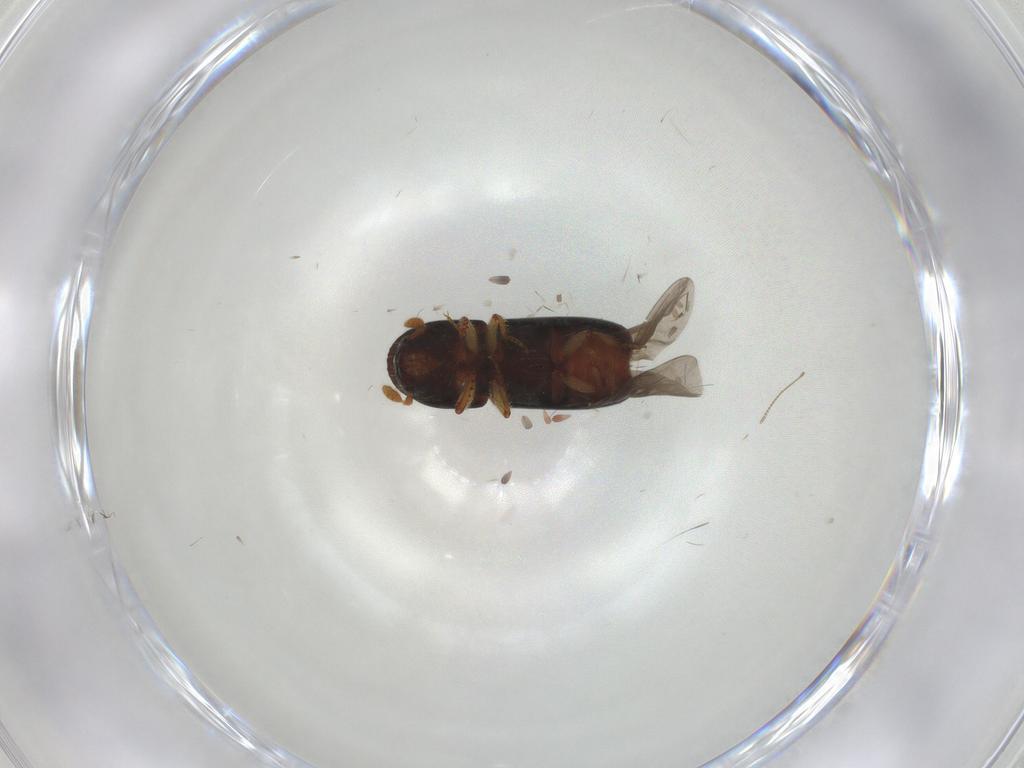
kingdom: Animalia
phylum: Arthropoda
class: Insecta
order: Coleoptera
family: Curculionidae
